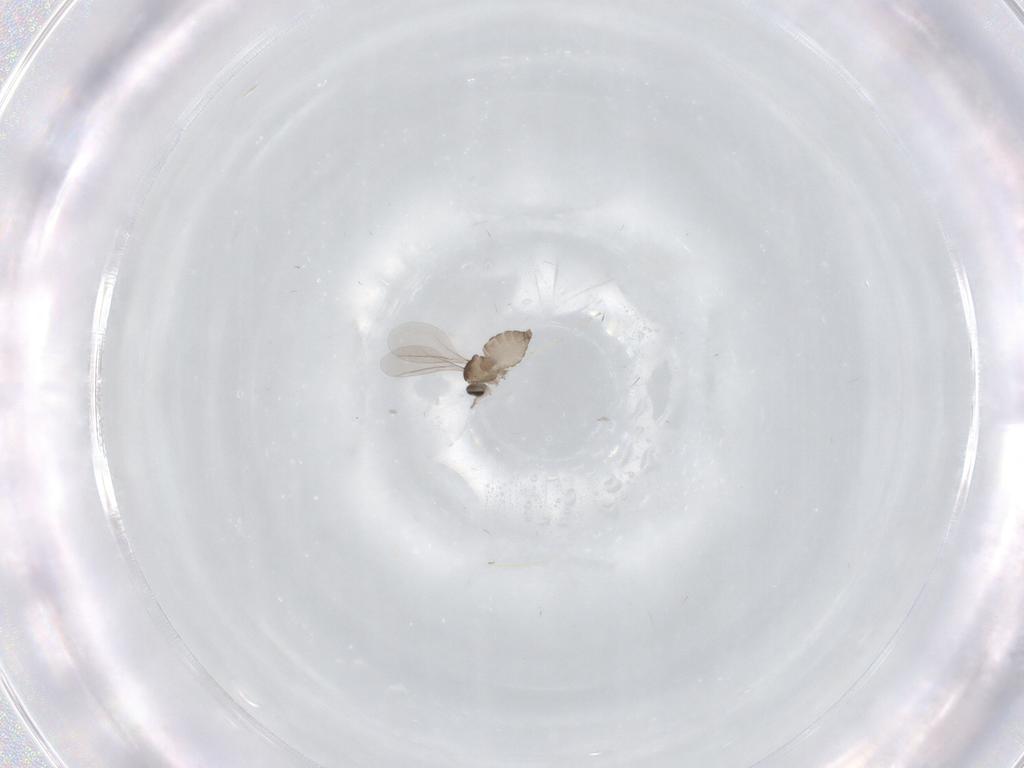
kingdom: Animalia
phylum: Arthropoda
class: Insecta
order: Diptera
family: Cecidomyiidae
